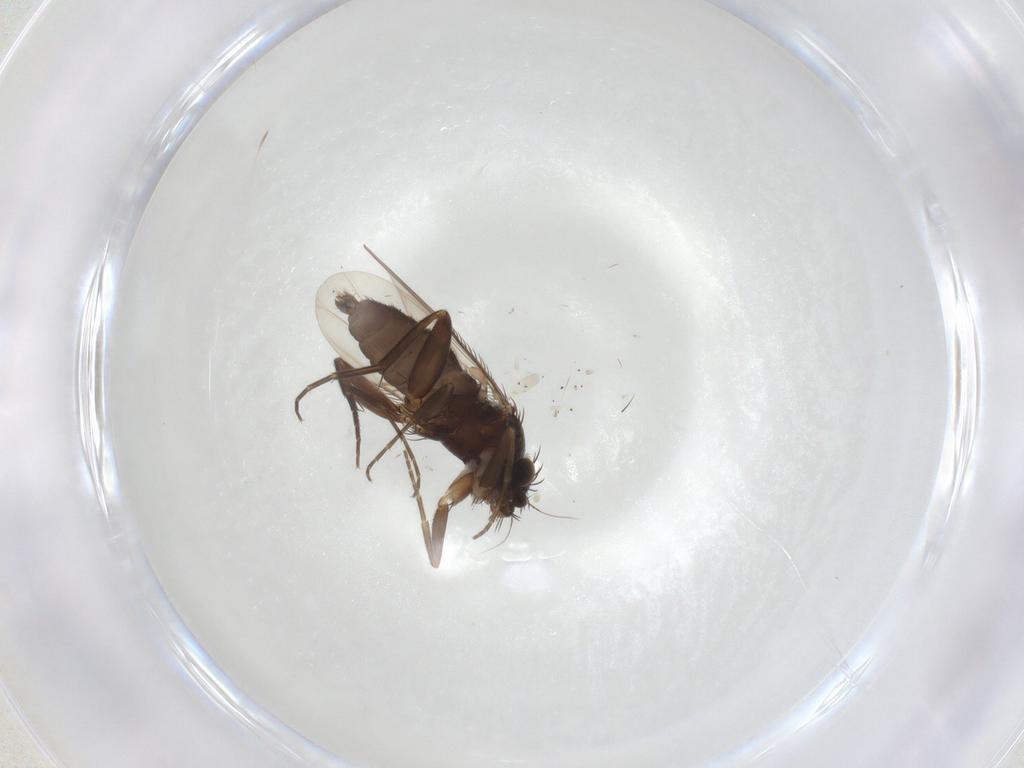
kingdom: Animalia
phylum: Arthropoda
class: Insecta
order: Diptera
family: Phoridae
